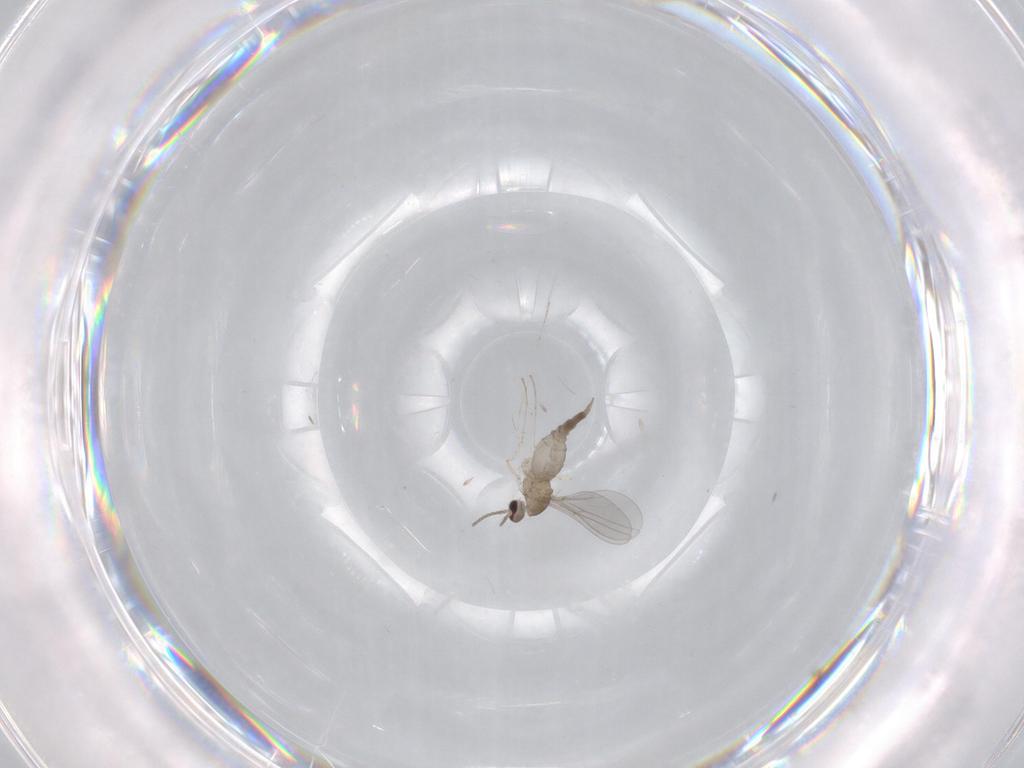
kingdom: Animalia
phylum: Arthropoda
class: Insecta
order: Diptera
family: Cecidomyiidae
